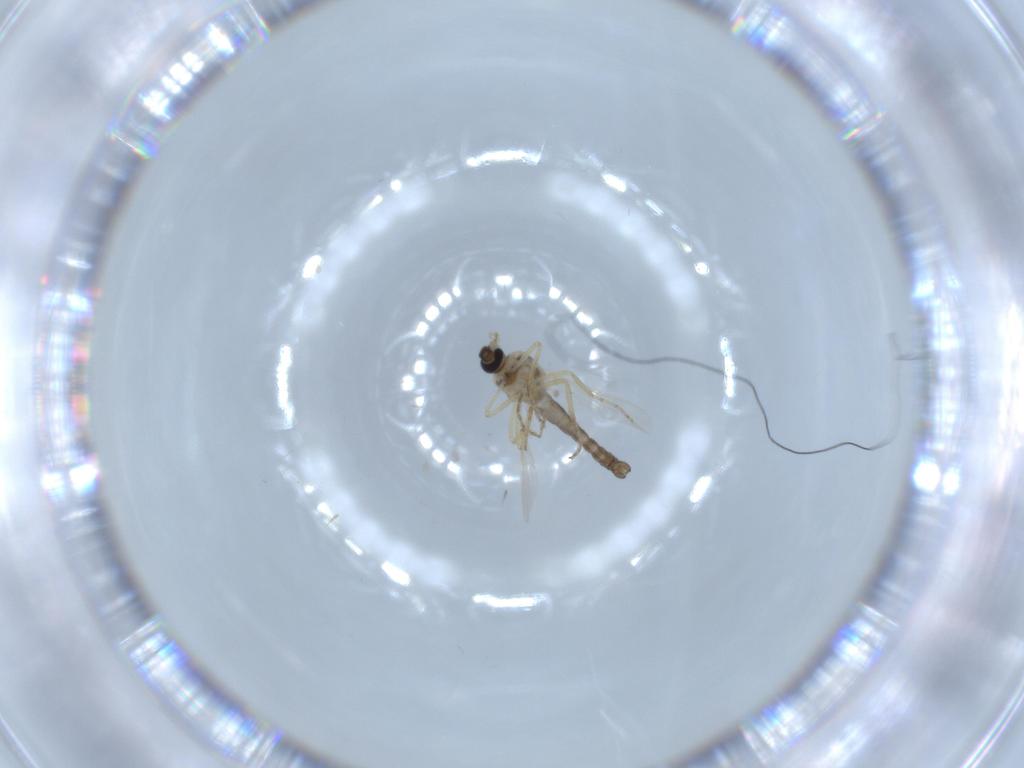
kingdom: Animalia
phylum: Arthropoda
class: Insecta
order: Diptera
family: Ceratopogonidae
